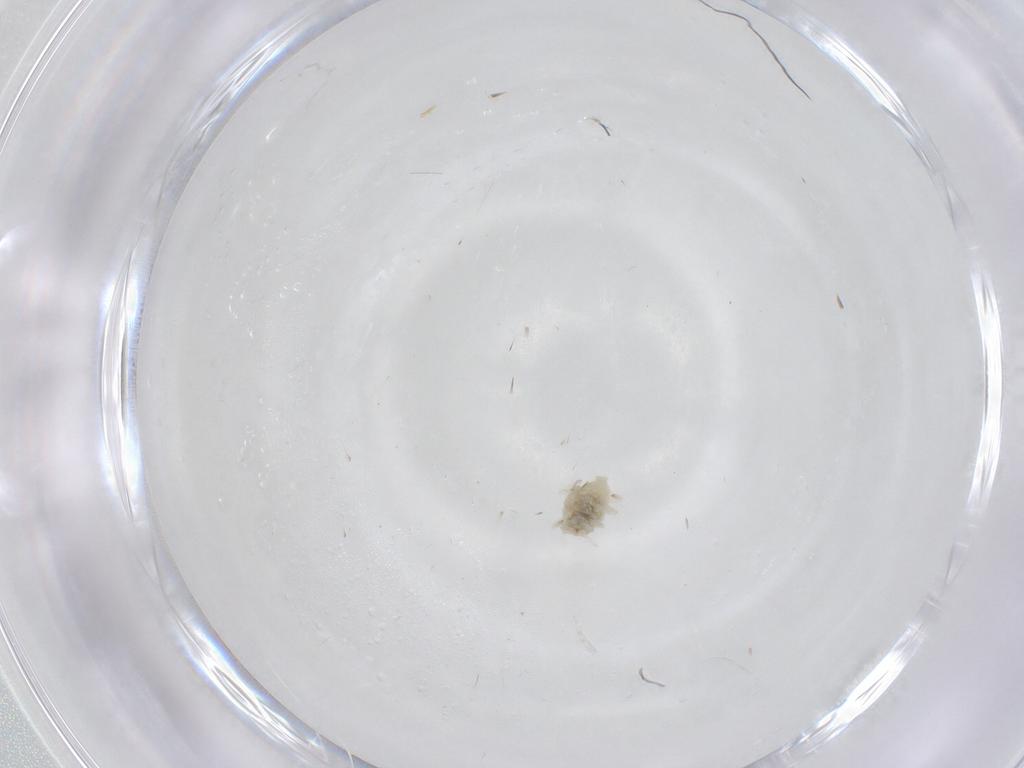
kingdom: Animalia
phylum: Arthropoda
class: Insecta
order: Neuroptera
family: Coniopterygidae
